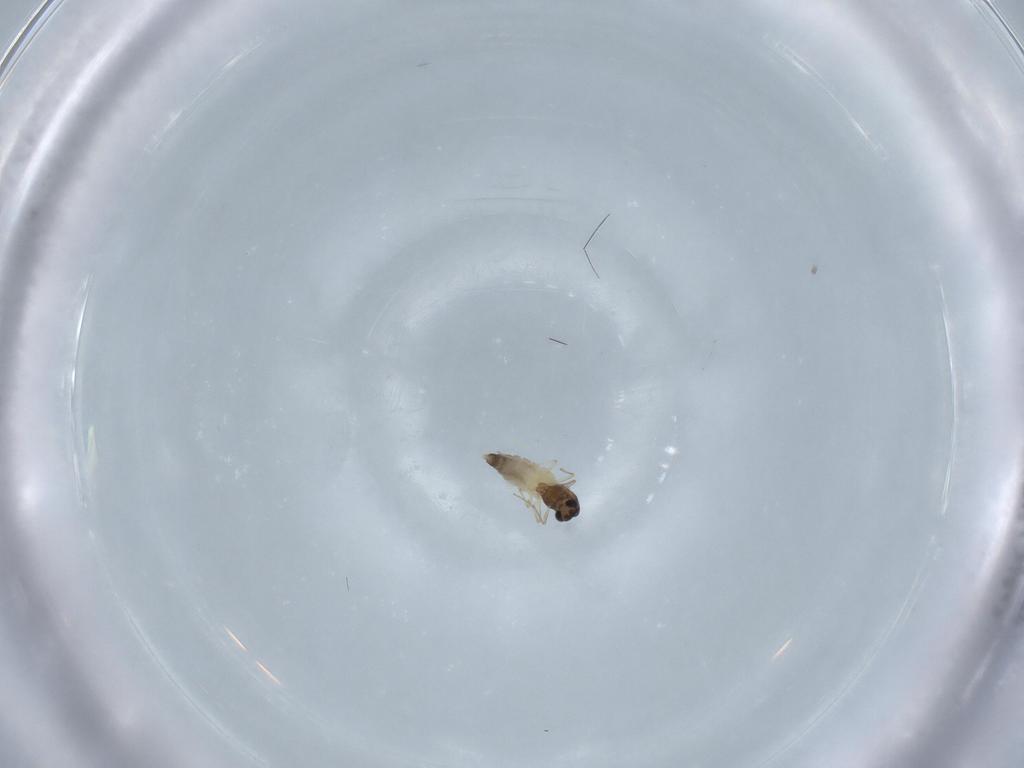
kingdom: Animalia
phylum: Arthropoda
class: Insecta
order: Diptera
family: Chironomidae
